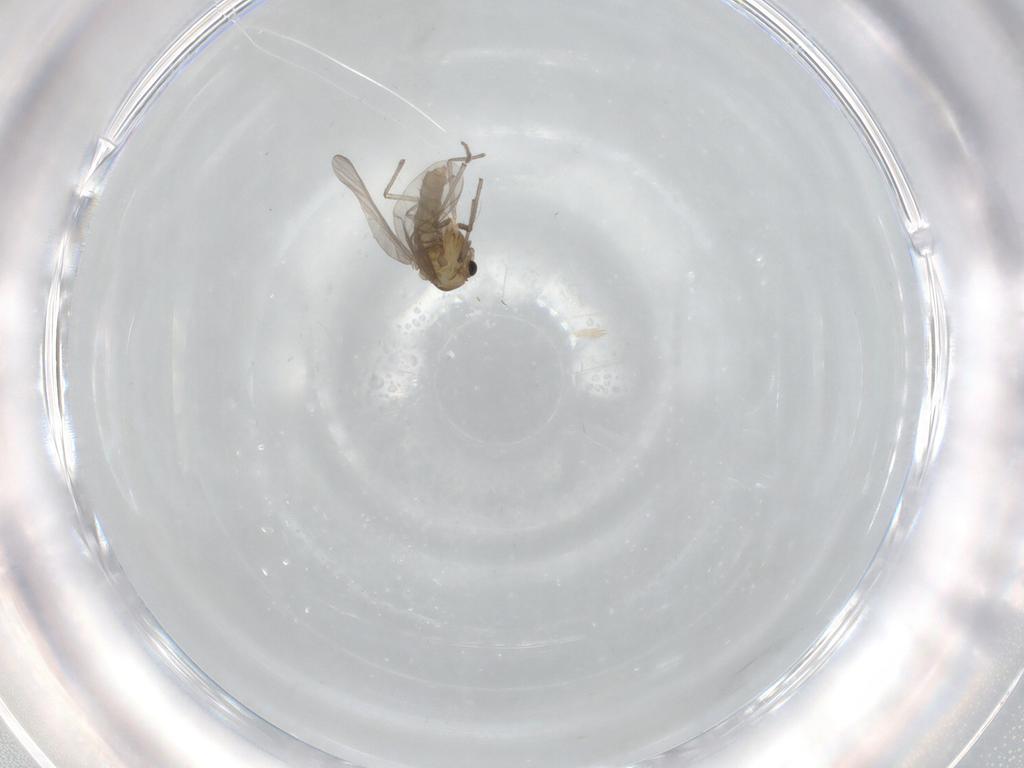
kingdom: Animalia
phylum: Arthropoda
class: Insecta
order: Diptera
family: Chironomidae
